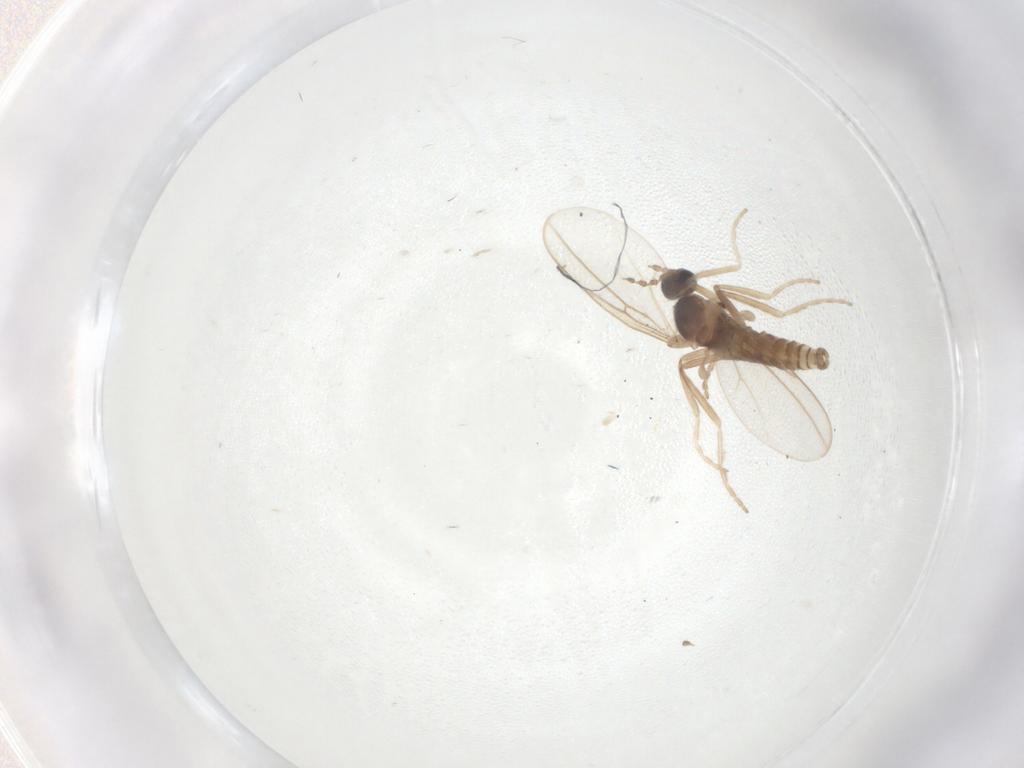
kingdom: Animalia
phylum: Arthropoda
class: Insecta
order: Diptera
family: Cecidomyiidae
